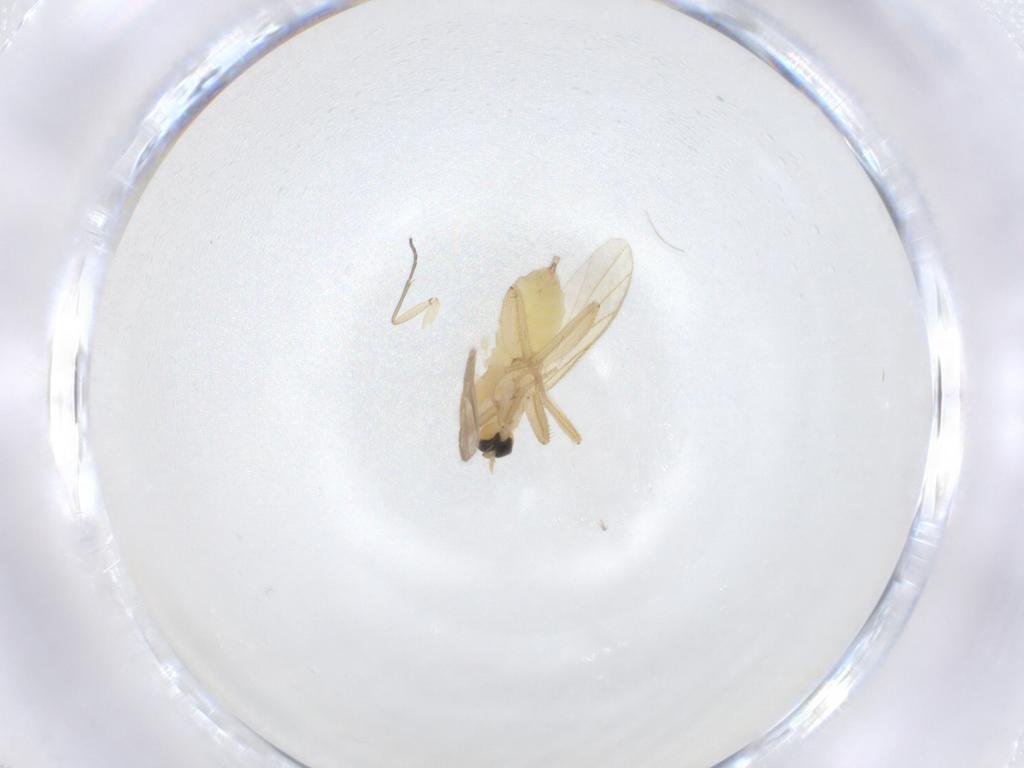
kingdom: Animalia
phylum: Arthropoda
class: Insecta
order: Diptera
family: Hybotidae
